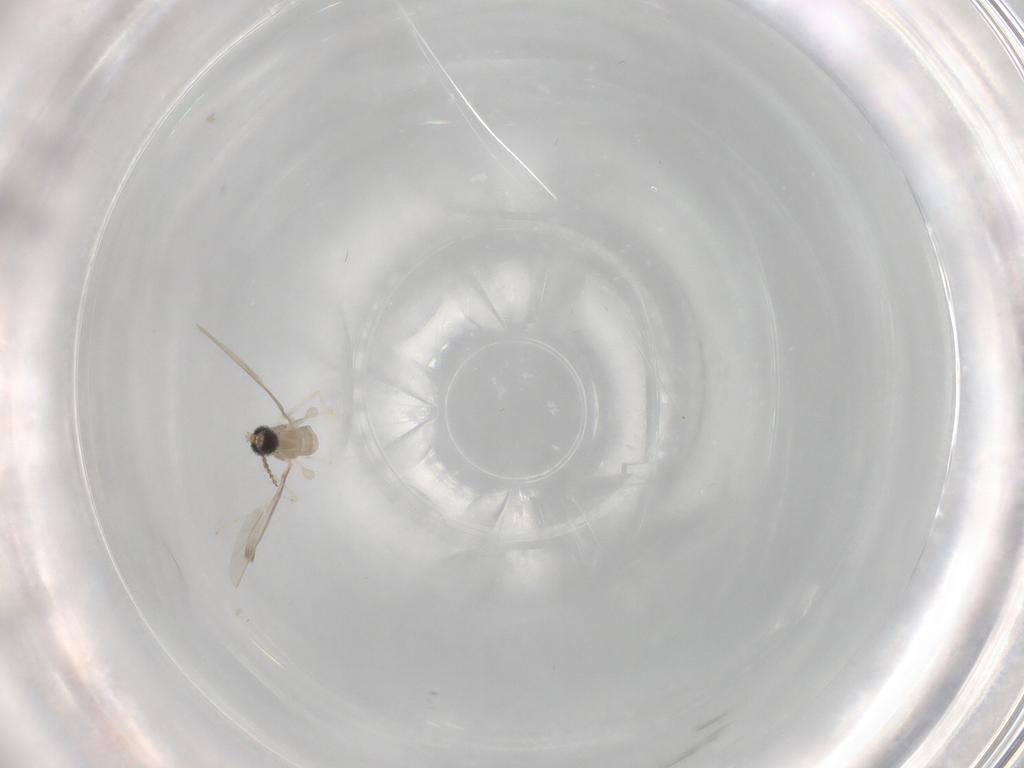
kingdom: Animalia
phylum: Arthropoda
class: Insecta
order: Diptera
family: Cecidomyiidae
